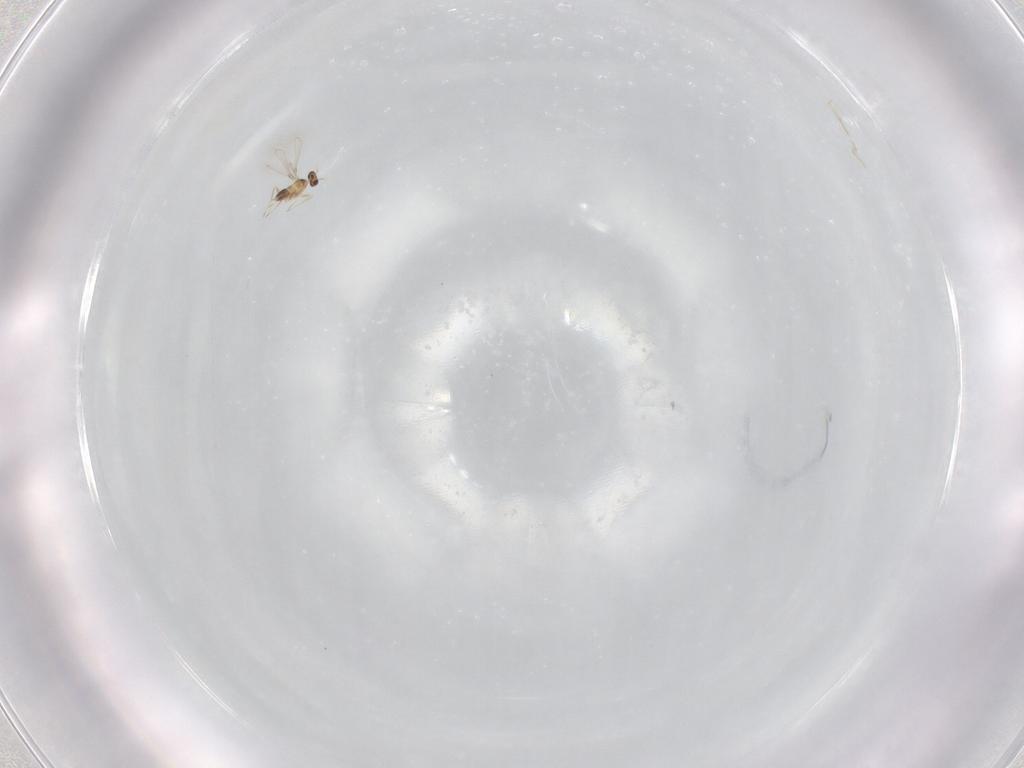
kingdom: Animalia
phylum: Arthropoda
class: Insecta
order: Hymenoptera
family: Mymaridae
